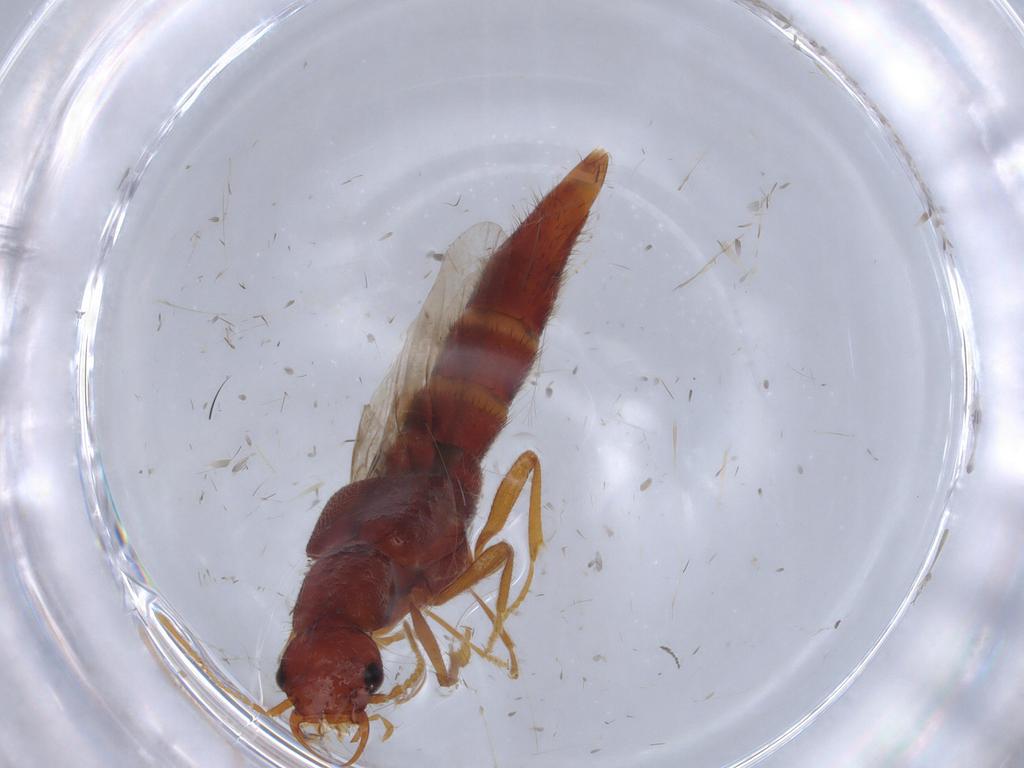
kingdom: Animalia
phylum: Arthropoda
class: Insecta
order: Coleoptera
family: Staphylinidae
